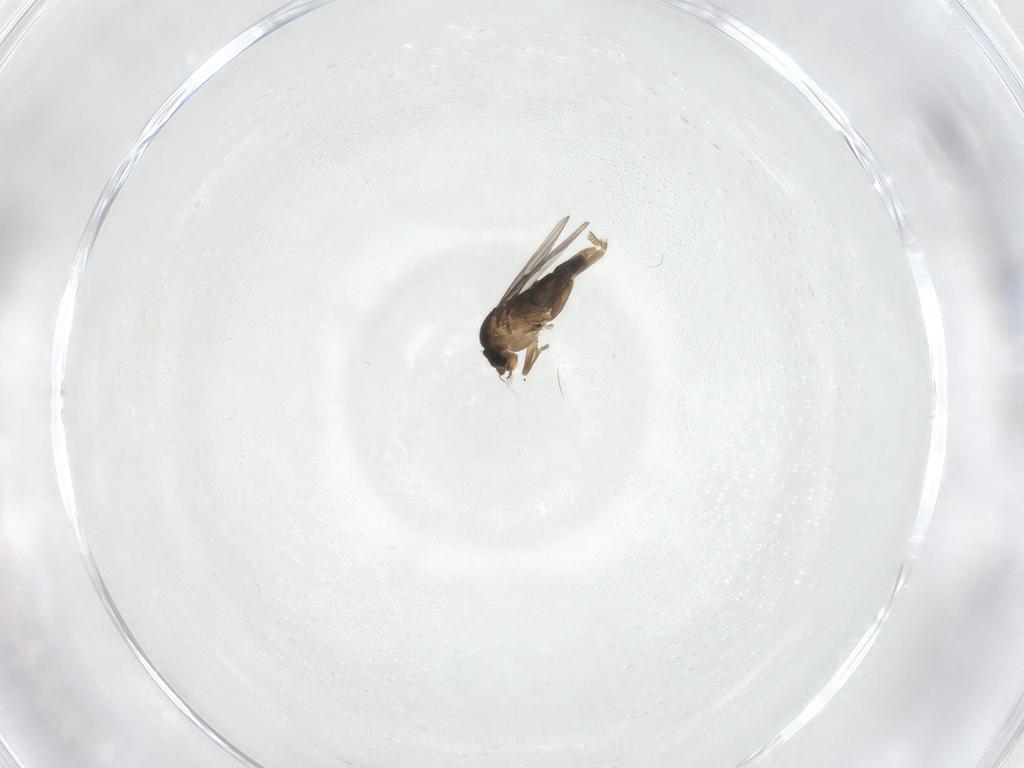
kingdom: Animalia
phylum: Arthropoda
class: Insecta
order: Diptera
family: Phoridae
